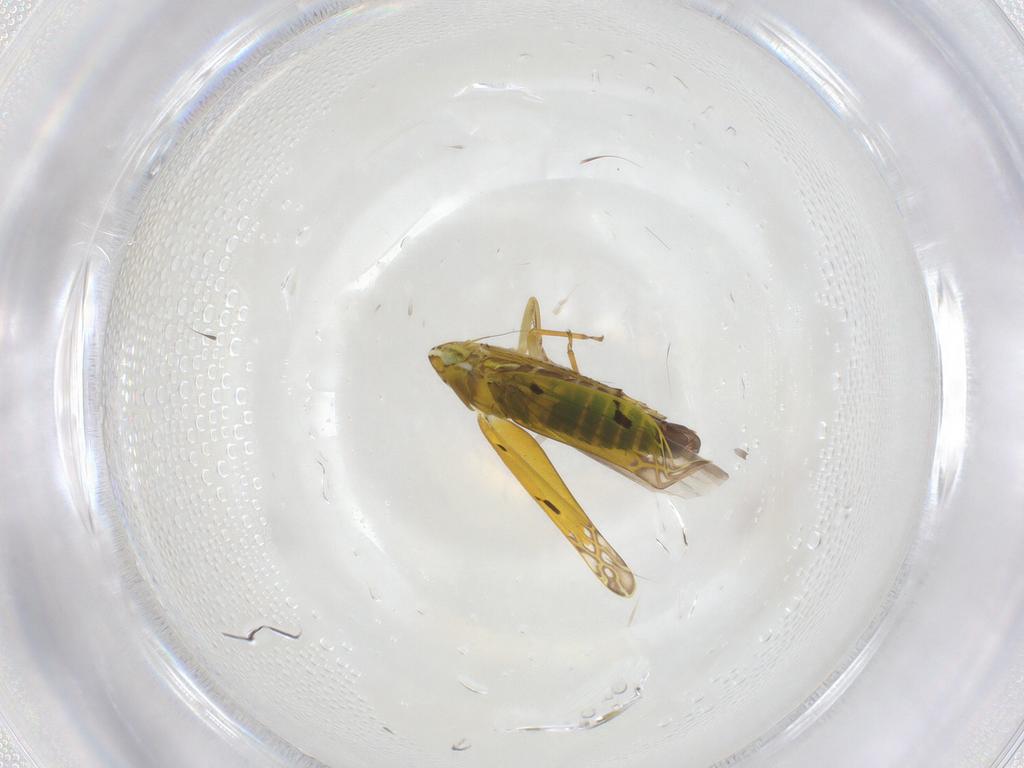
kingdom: Animalia
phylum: Arthropoda
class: Insecta
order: Hemiptera
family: Cicadellidae
